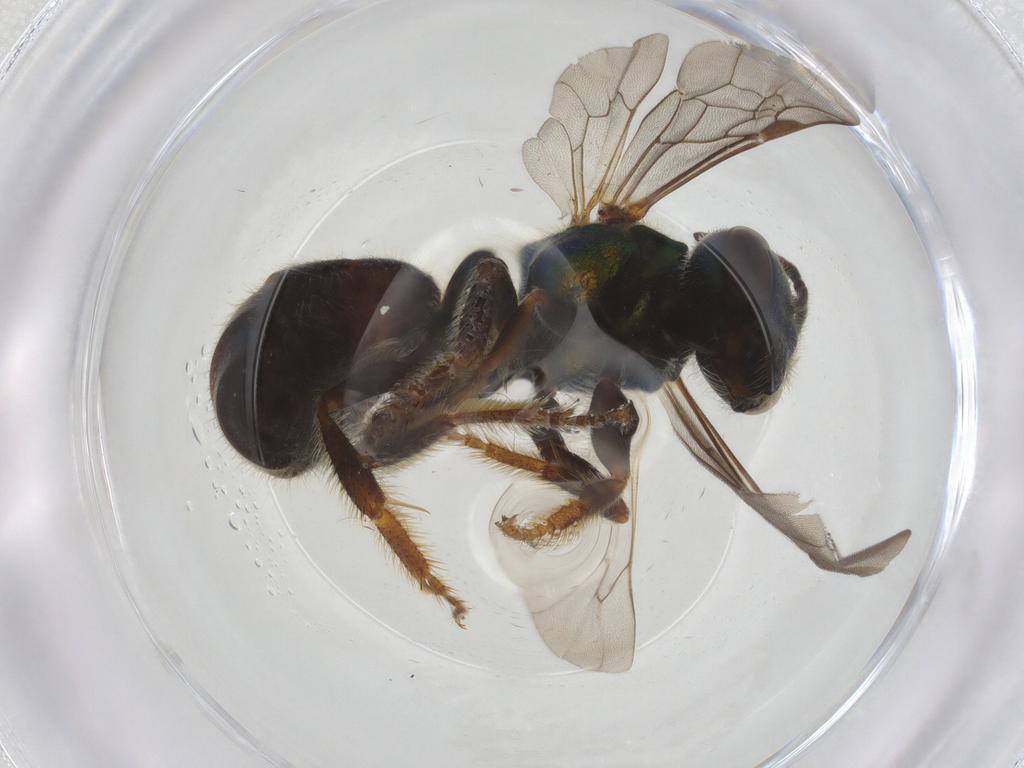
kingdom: Animalia
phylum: Arthropoda
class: Insecta
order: Hymenoptera
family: Halictidae
